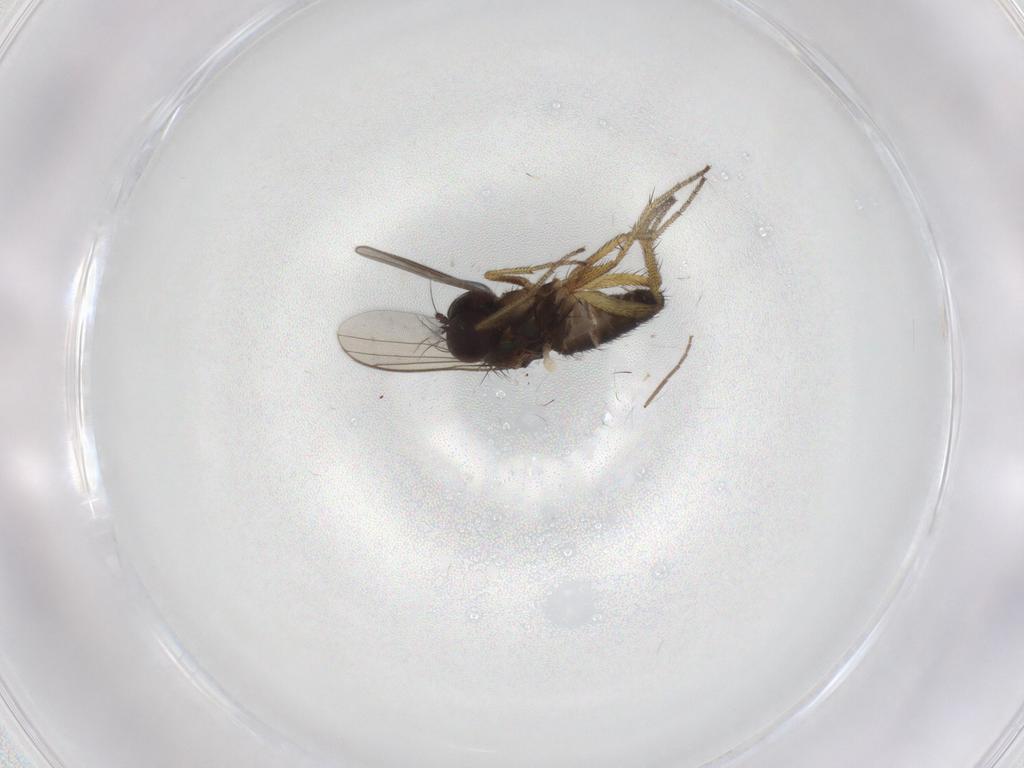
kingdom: Animalia
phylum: Arthropoda
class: Insecta
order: Diptera
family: Chironomidae
